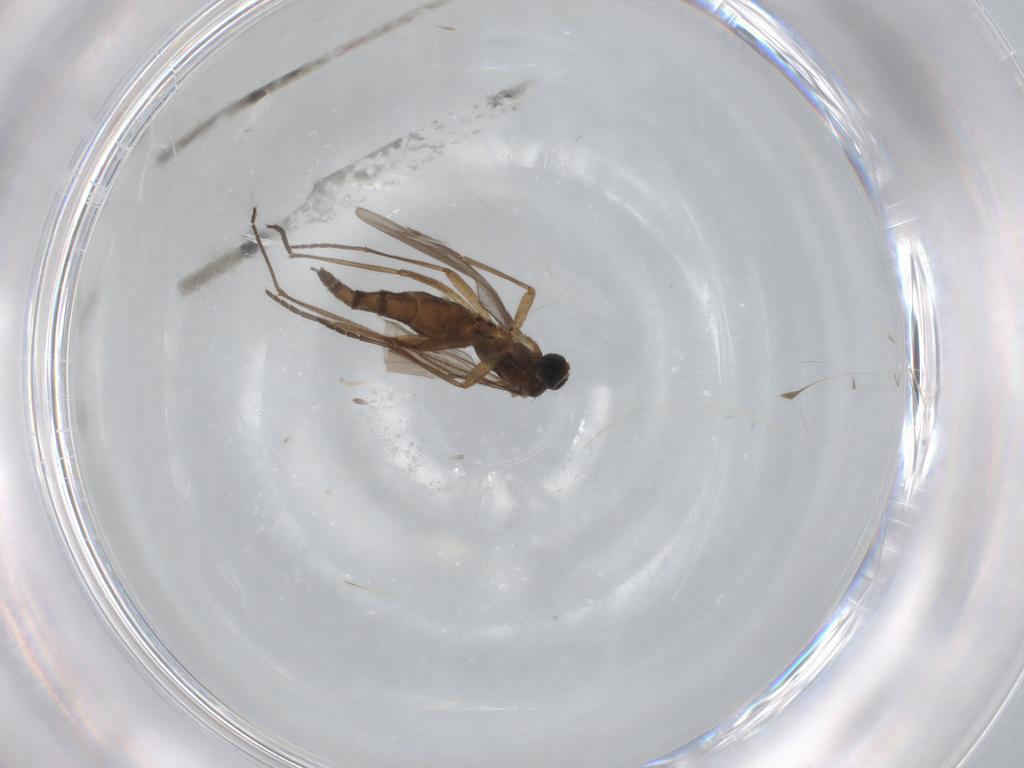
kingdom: Animalia
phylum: Arthropoda
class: Insecta
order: Diptera
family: Sciaridae
